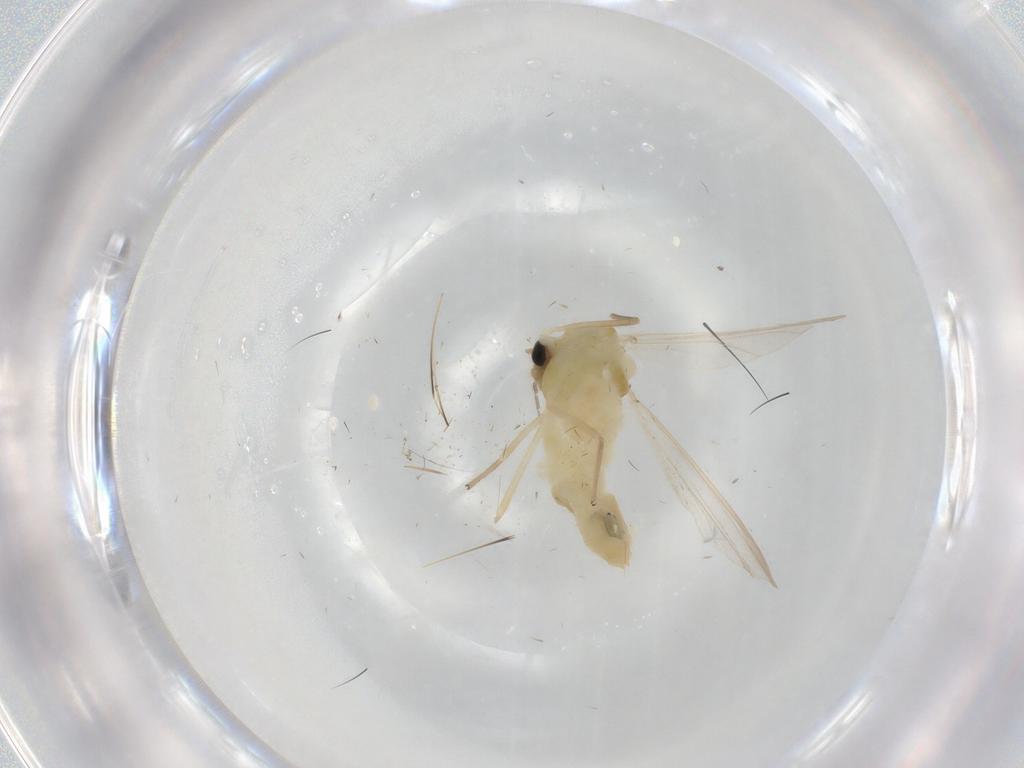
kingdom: Animalia
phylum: Arthropoda
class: Insecta
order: Diptera
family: Chironomidae
